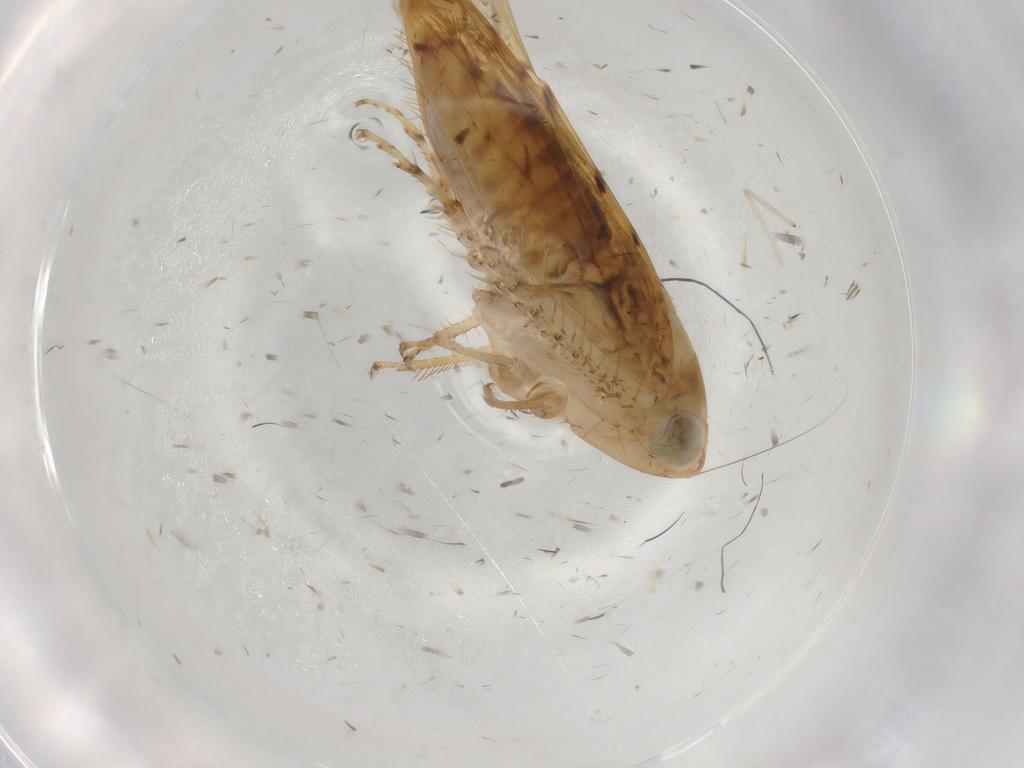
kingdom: Animalia
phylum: Arthropoda
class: Insecta
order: Hemiptera
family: Cicadellidae
